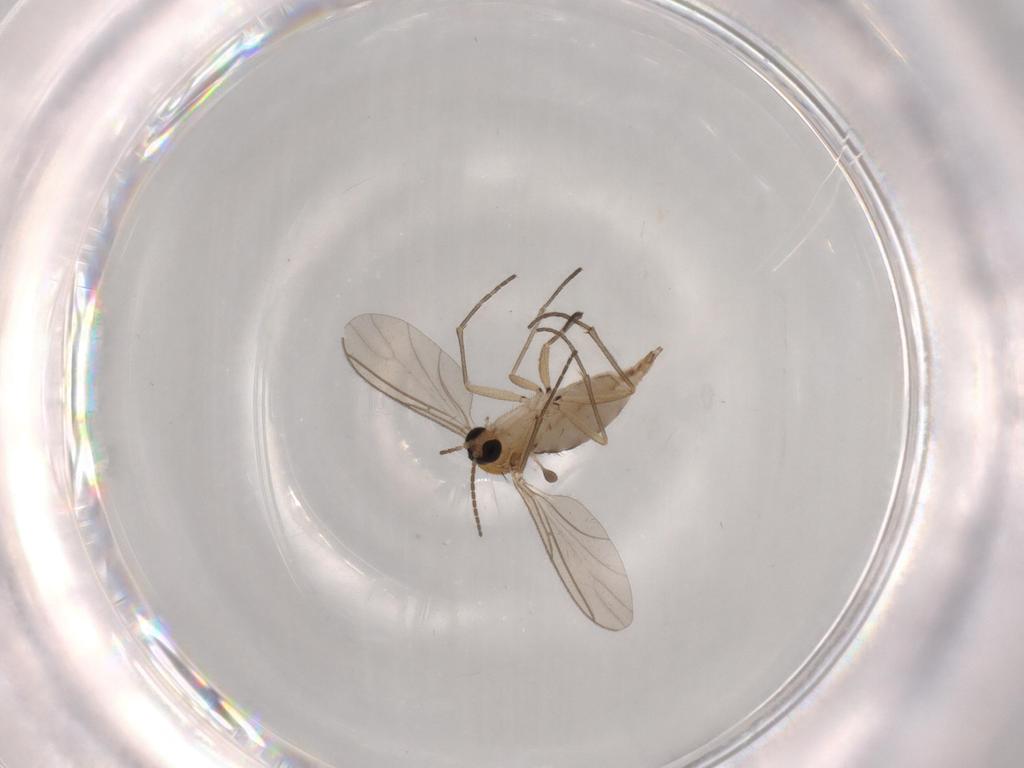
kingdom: Animalia
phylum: Arthropoda
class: Insecta
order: Diptera
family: Sciaridae
